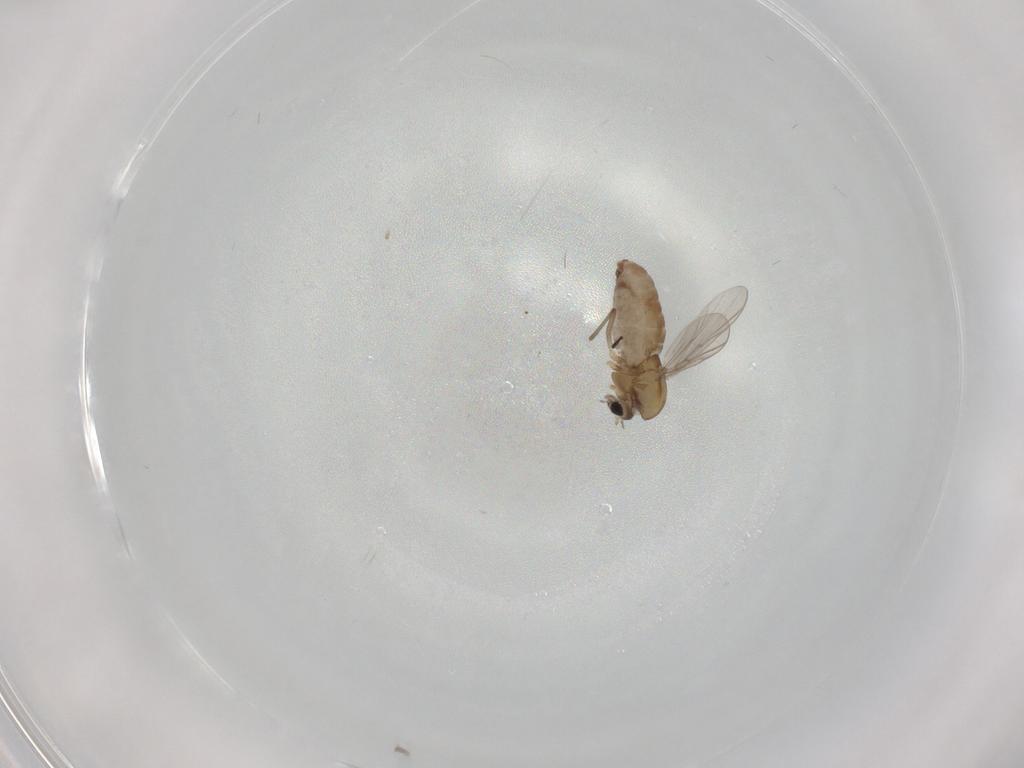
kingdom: Animalia
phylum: Arthropoda
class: Insecta
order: Diptera
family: Chironomidae
